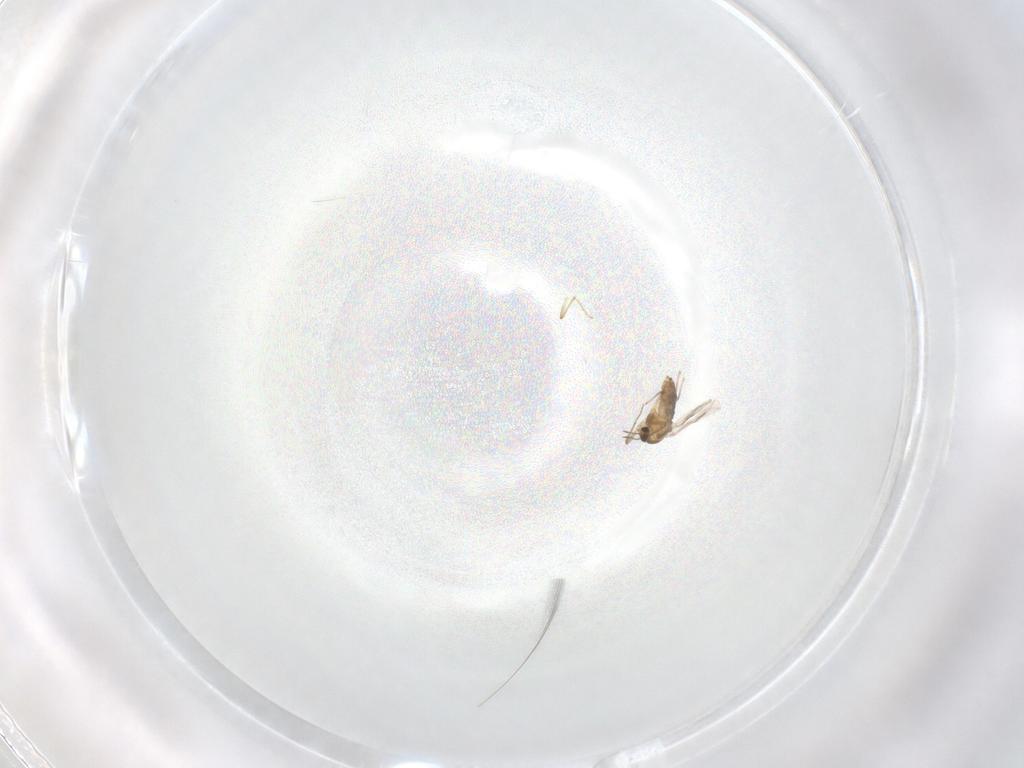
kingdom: Animalia
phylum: Arthropoda
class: Insecta
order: Diptera
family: Chironomidae
